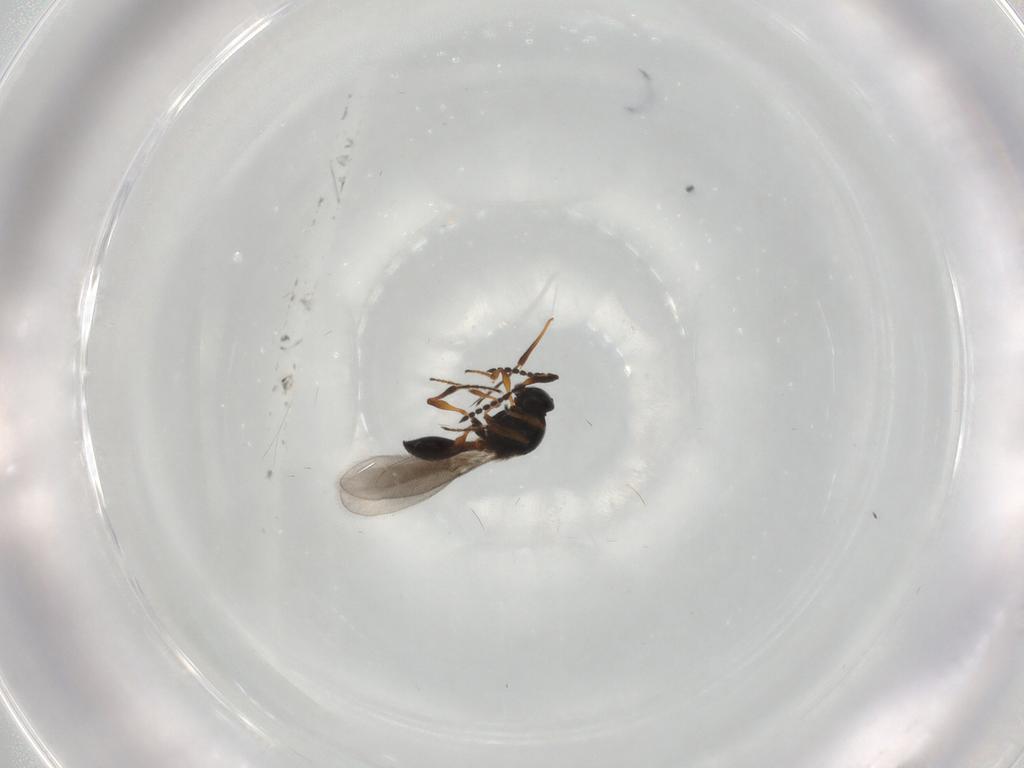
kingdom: Animalia
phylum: Arthropoda
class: Insecta
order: Hymenoptera
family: Platygastridae
